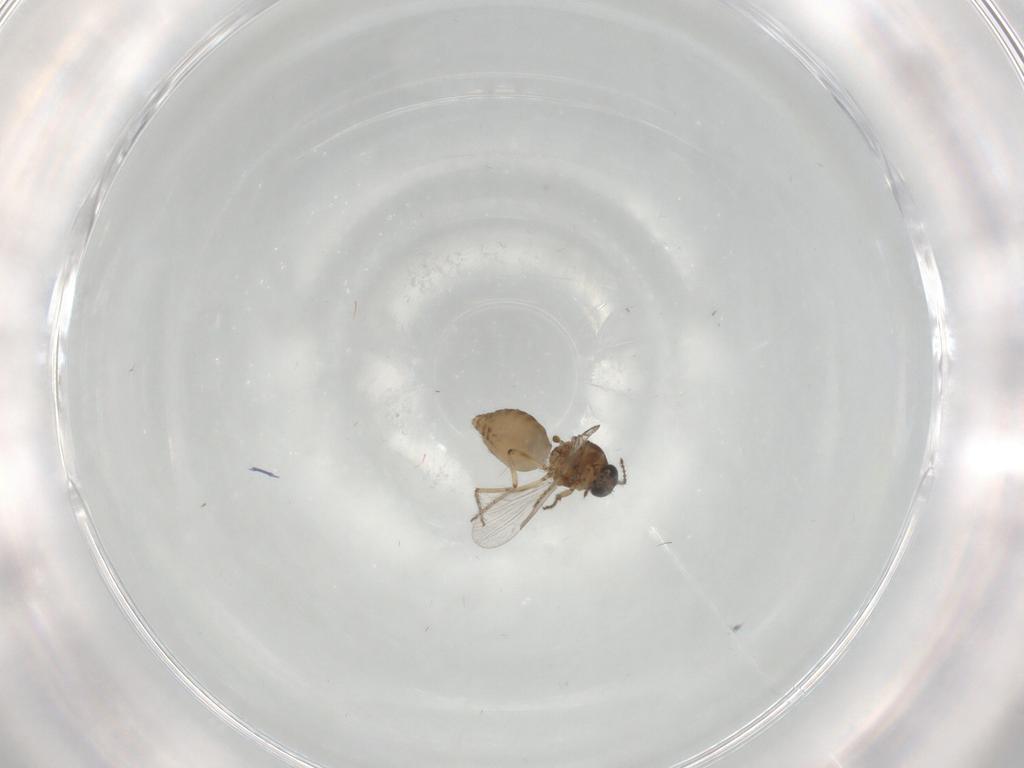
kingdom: Animalia
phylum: Arthropoda
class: Insecta
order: Diptera
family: Ceratopogonidae
